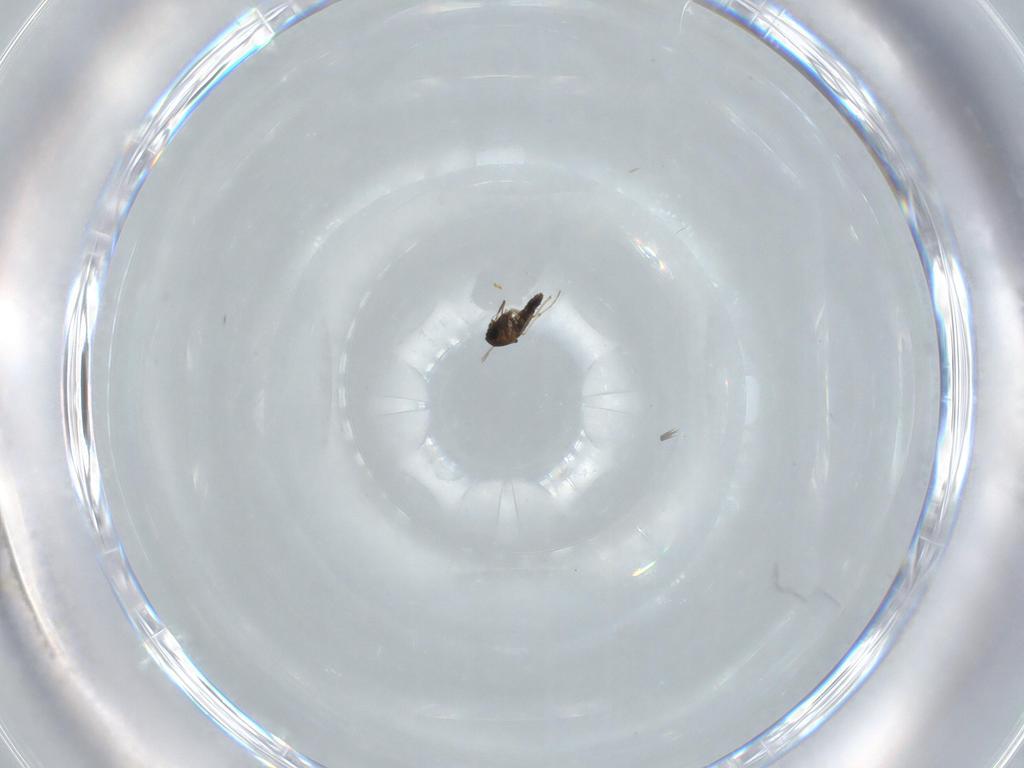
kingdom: Animalia
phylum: Arthropoda
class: Insecta
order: Diptera
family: Chironomidae
